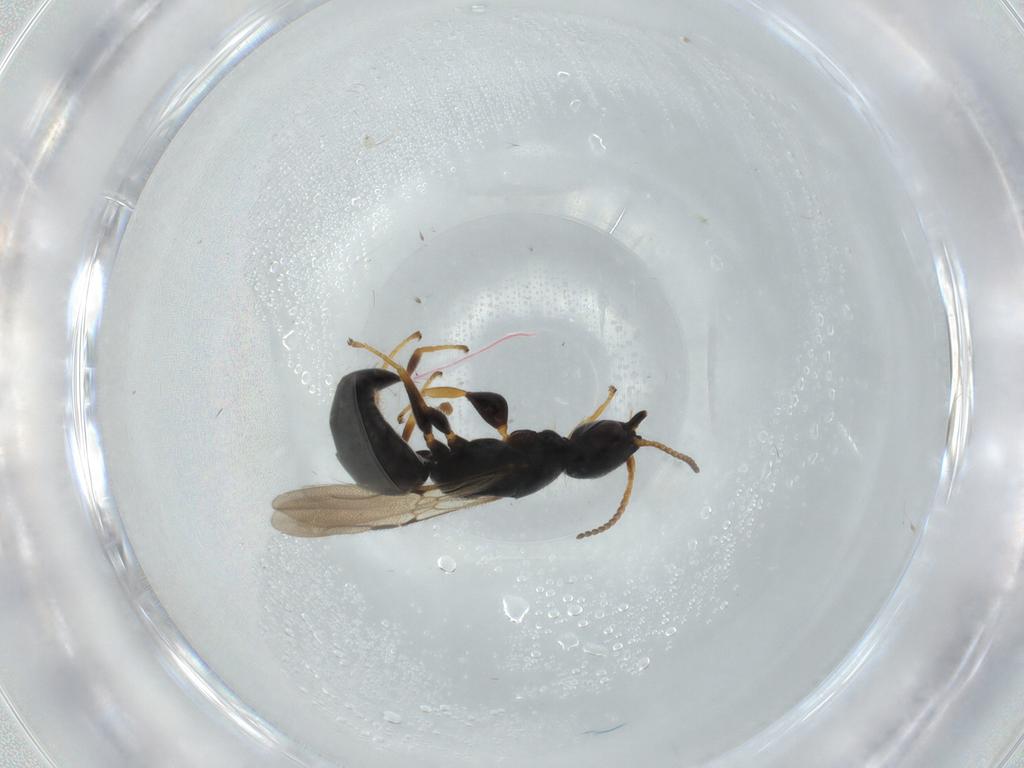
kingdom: Animalia
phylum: Arthropoda
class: Insecta
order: Hymenoptera
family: Bethylidae
